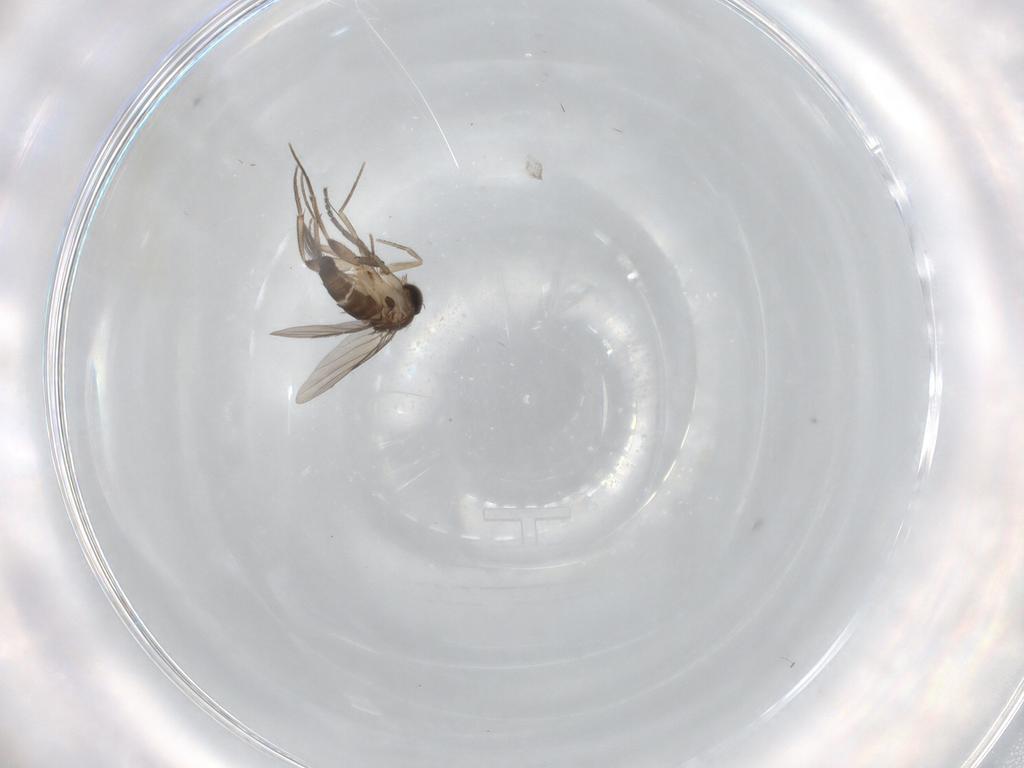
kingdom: Animalia
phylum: Arthropoda
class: Insecta
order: Diptera
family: Phoridae
